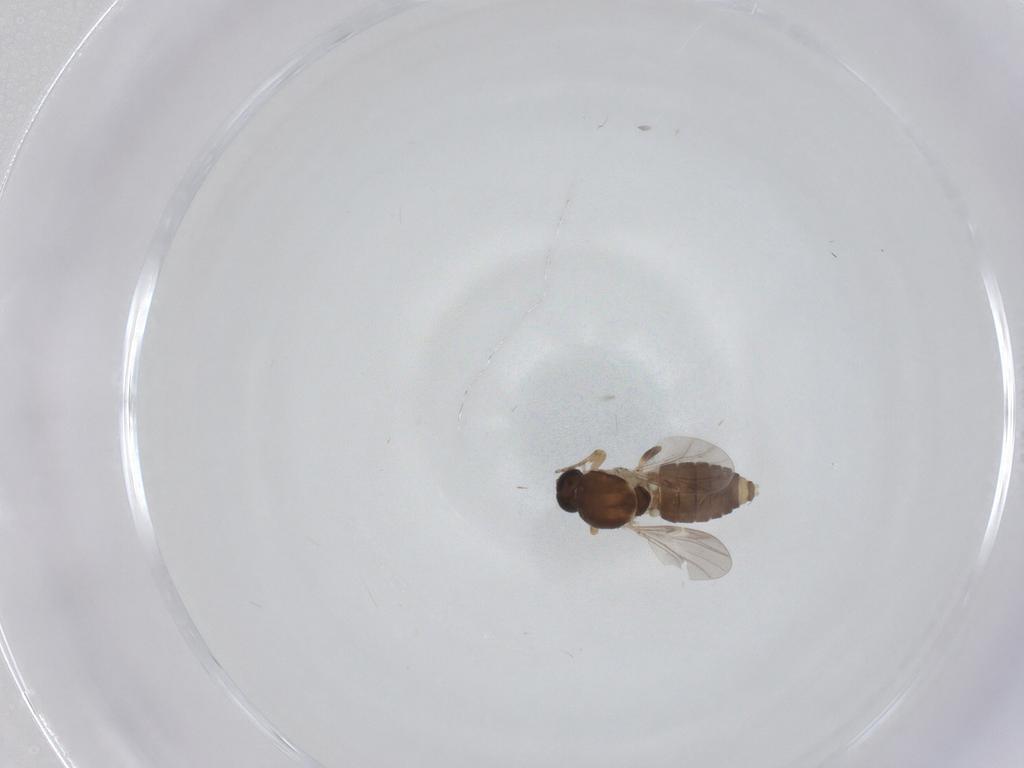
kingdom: Animalia
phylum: Arthropoda
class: Insecta
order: Diptera
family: Ceratopogonidae
